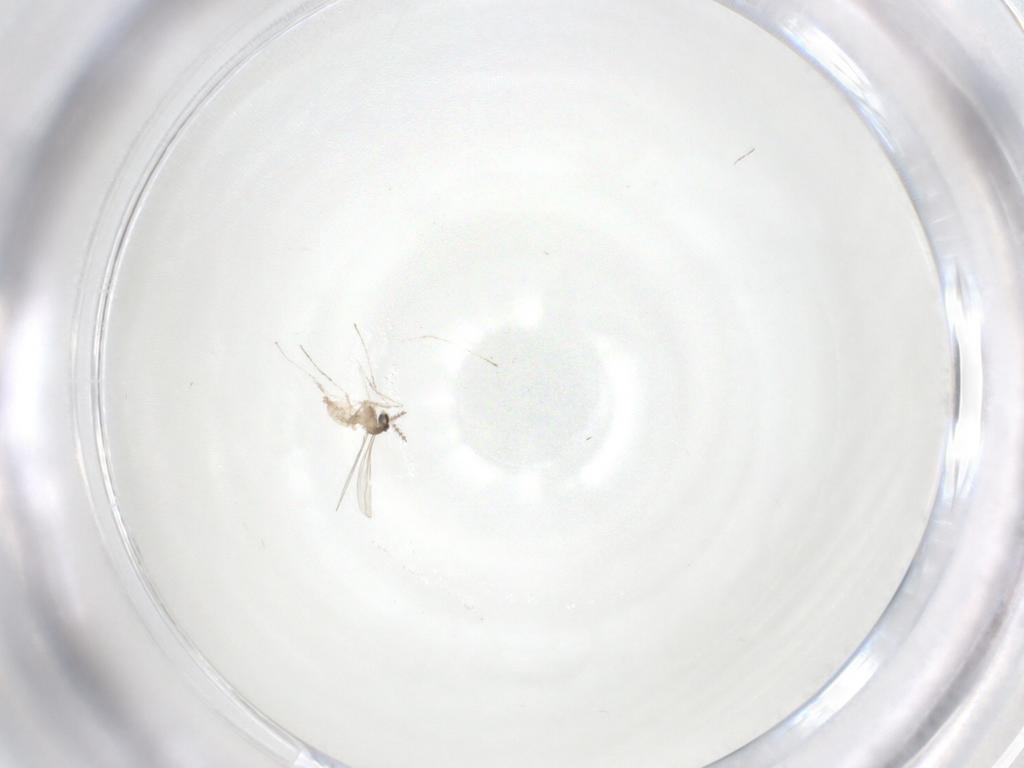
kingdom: Animalia
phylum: Arthropoda
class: Insecta
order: Diptera
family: Cecidomyiidae
